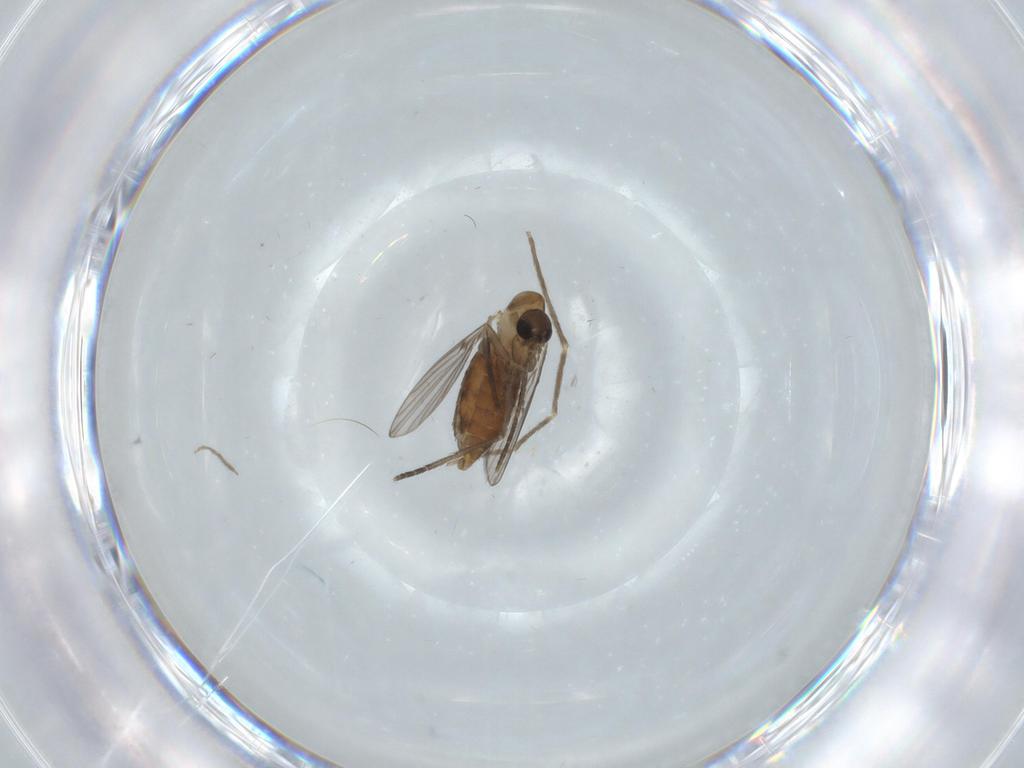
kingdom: Animalia
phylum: Arthropoda
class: Insecta
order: Diptera
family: Chironomidae
